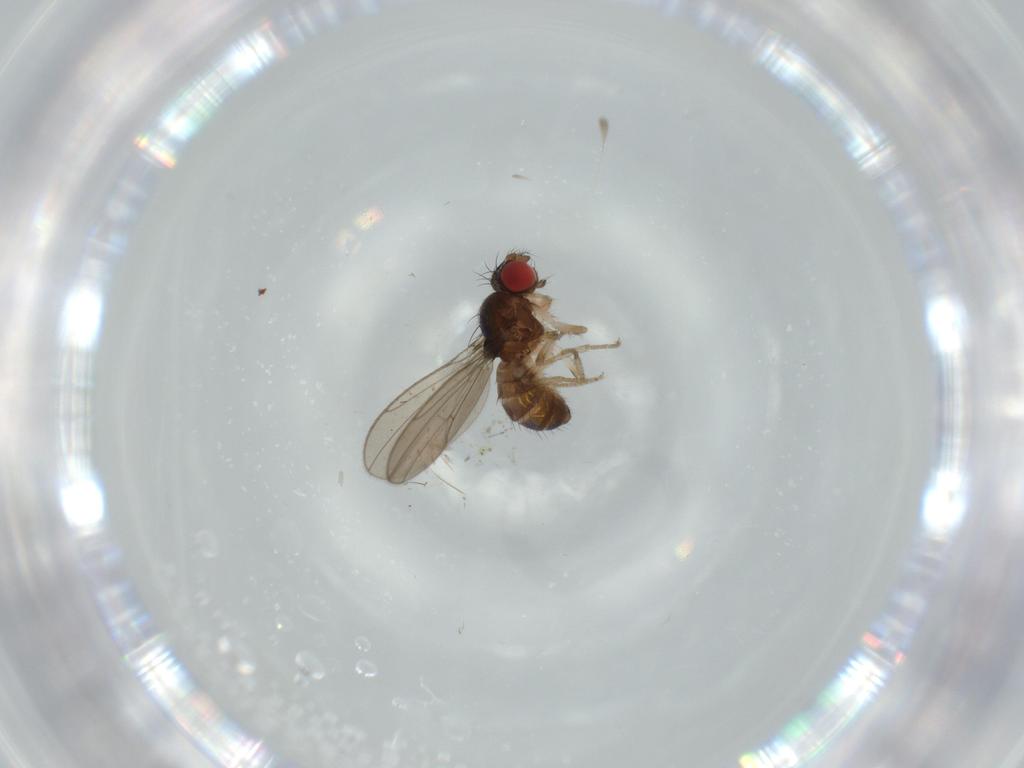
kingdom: Animalia
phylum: Arthropoda
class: Insecta
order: Diptera
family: Drosophilidae
